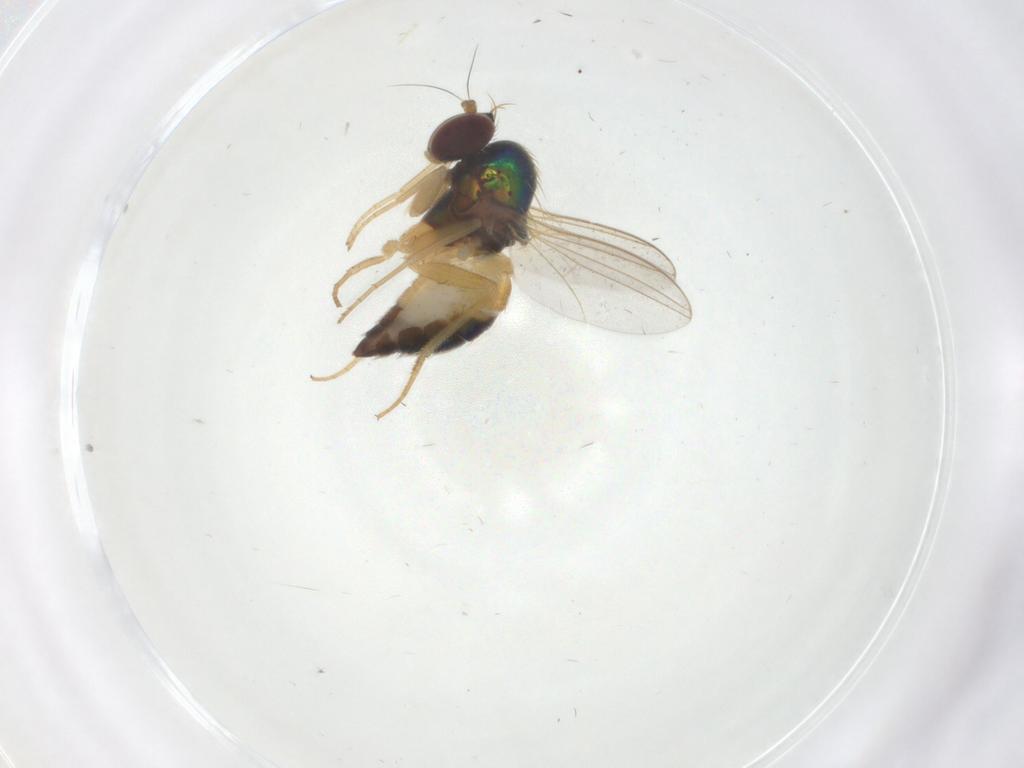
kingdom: Animalia
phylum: Arthropoda
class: Insecta
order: Diptera
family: Dolichopodidae
